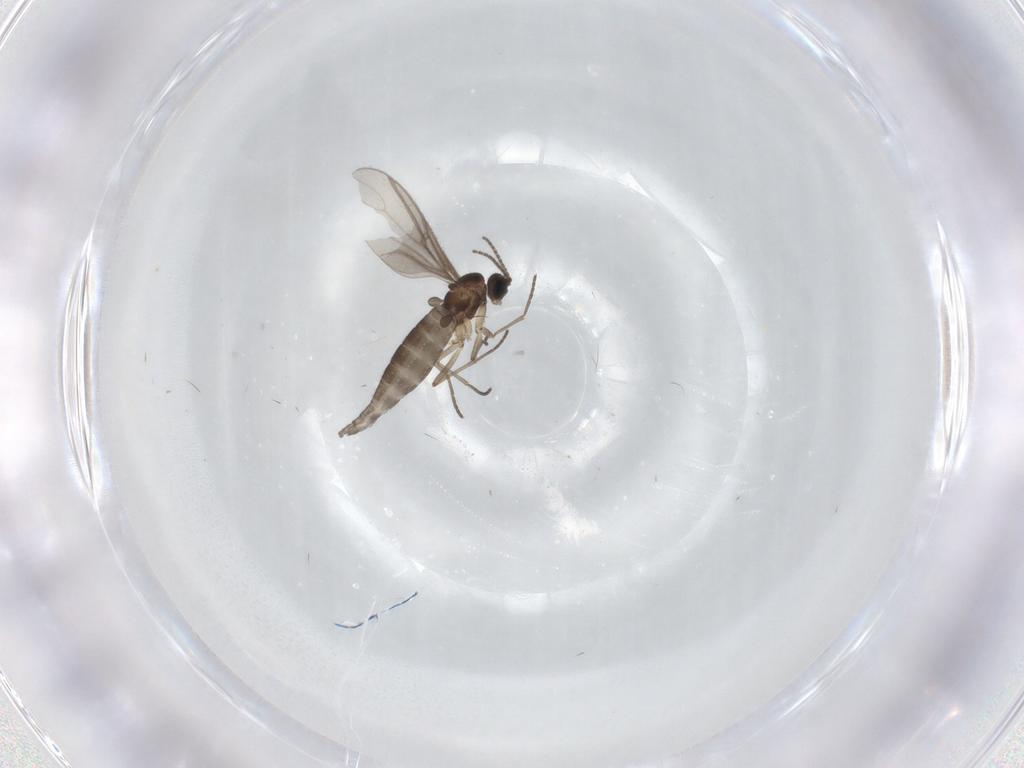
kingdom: Animalia
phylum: Arthropoda
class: Insecta
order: Diptera
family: Sciaridae
